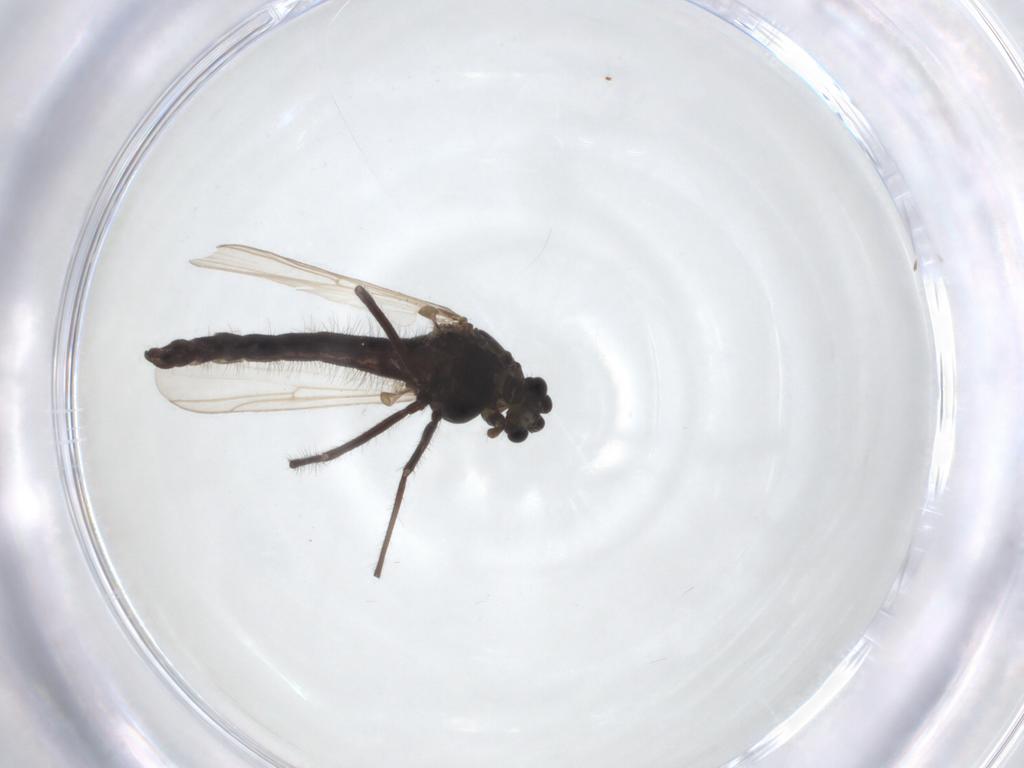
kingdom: Animalia
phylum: Arthropoda
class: Insecta
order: Diptera
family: Chironomidae
